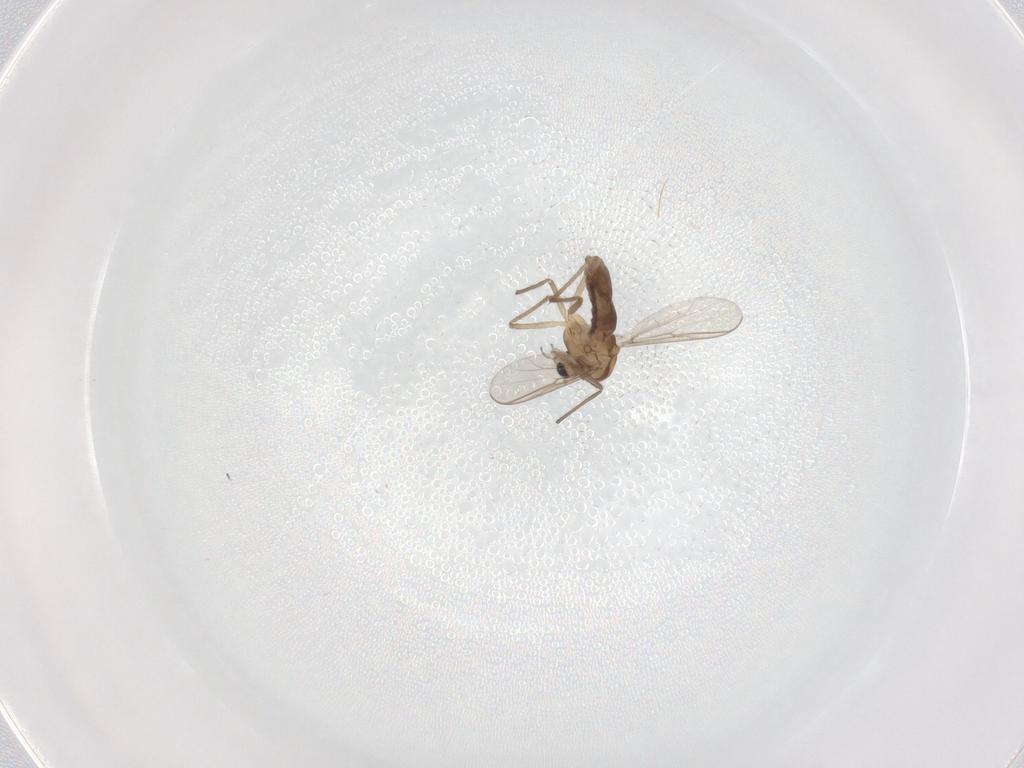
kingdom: Animalia
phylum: Arthropoda
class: Insecta
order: Diptera
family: Chironomidae
